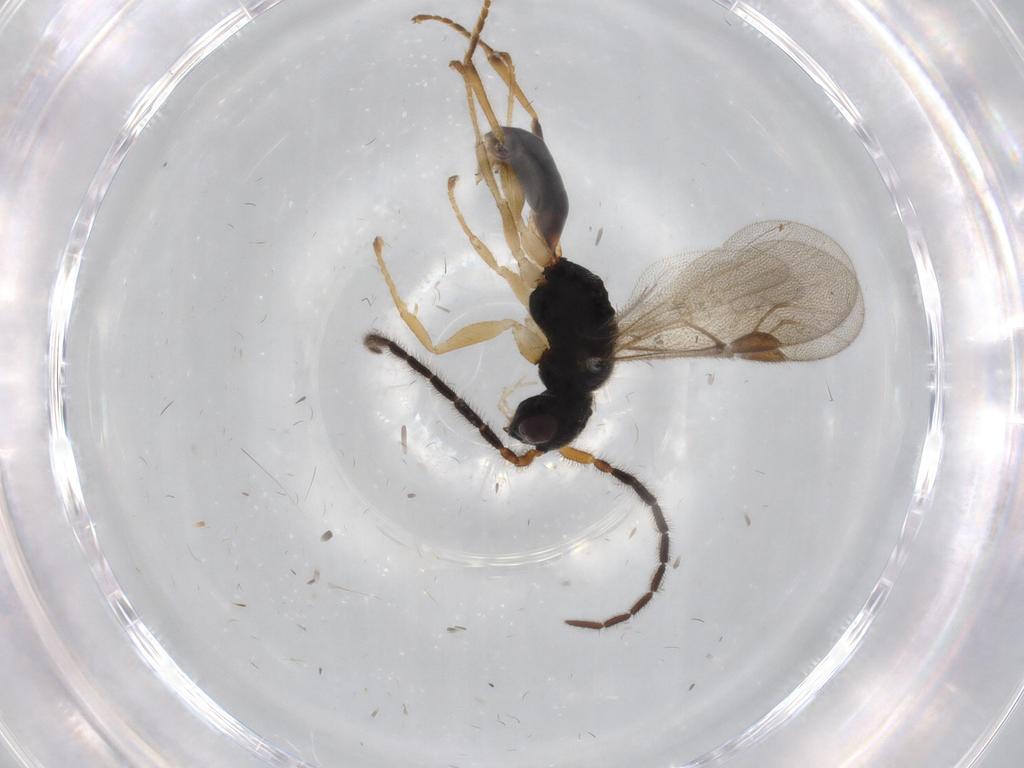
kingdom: Animalia
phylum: Arthropoda
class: Insecta
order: Hymenoptera
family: Dryinidae
